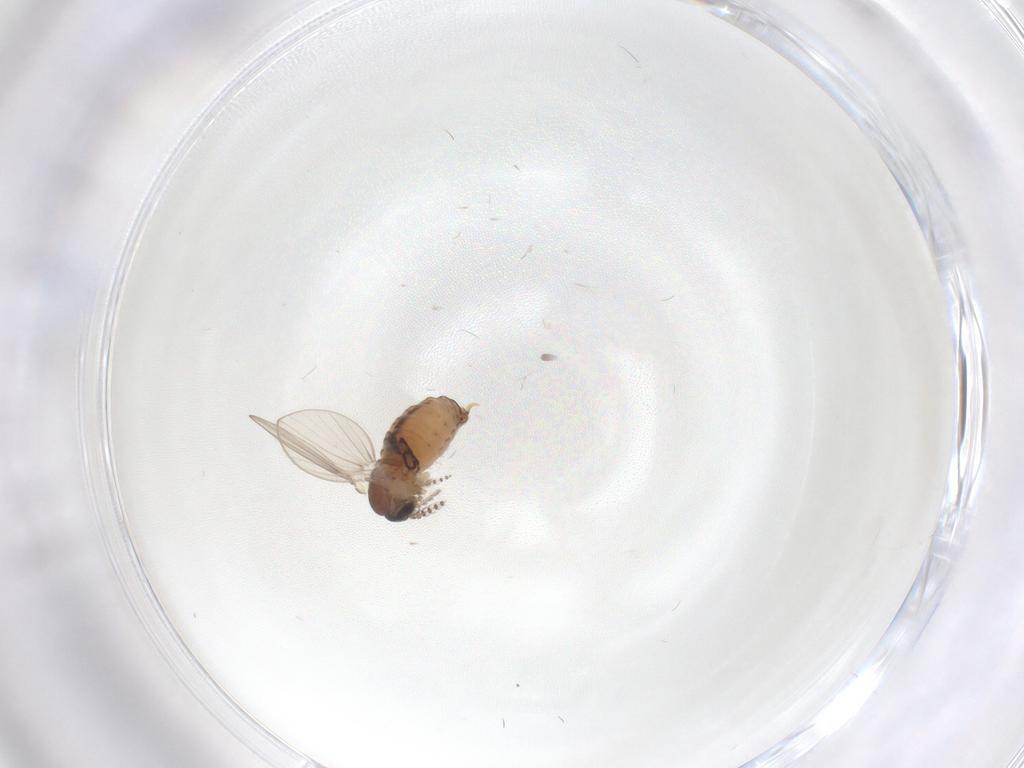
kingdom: Animalia
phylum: Arthropoda
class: Insecta
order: Diptera
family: Psychodidae
